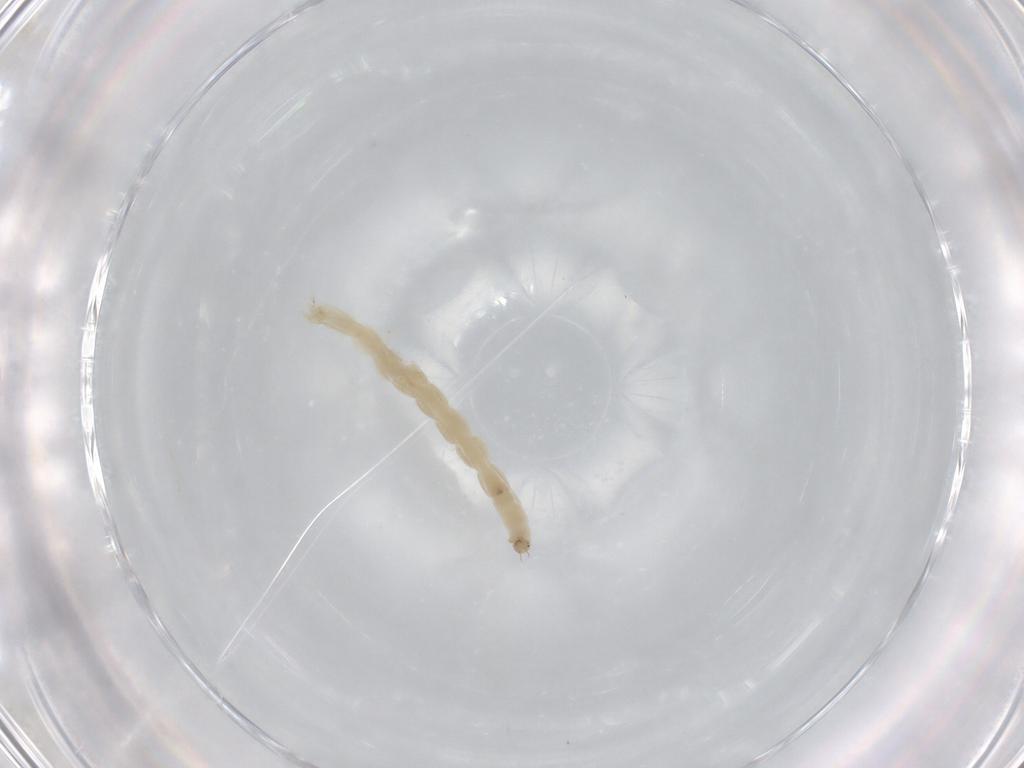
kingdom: Animalia
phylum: Arthropoda
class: Insecta
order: Diptera
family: Chironomidae
